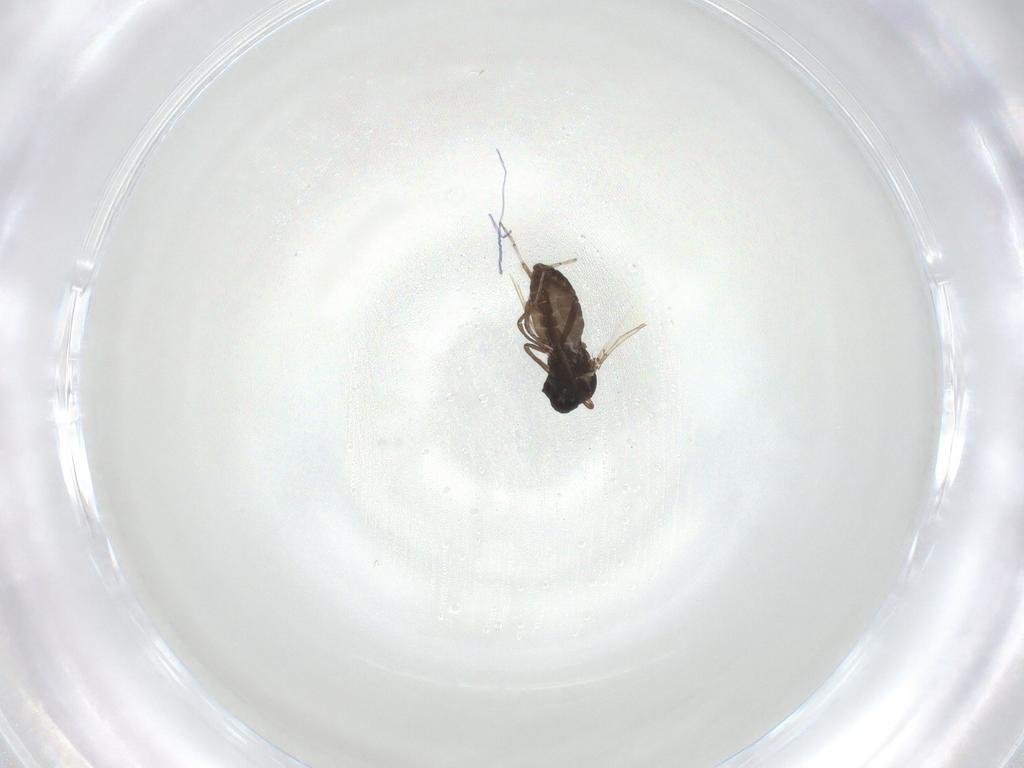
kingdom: Animalia
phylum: Arthropoda
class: Insecta
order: Diptera
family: Ceratopogonidae
